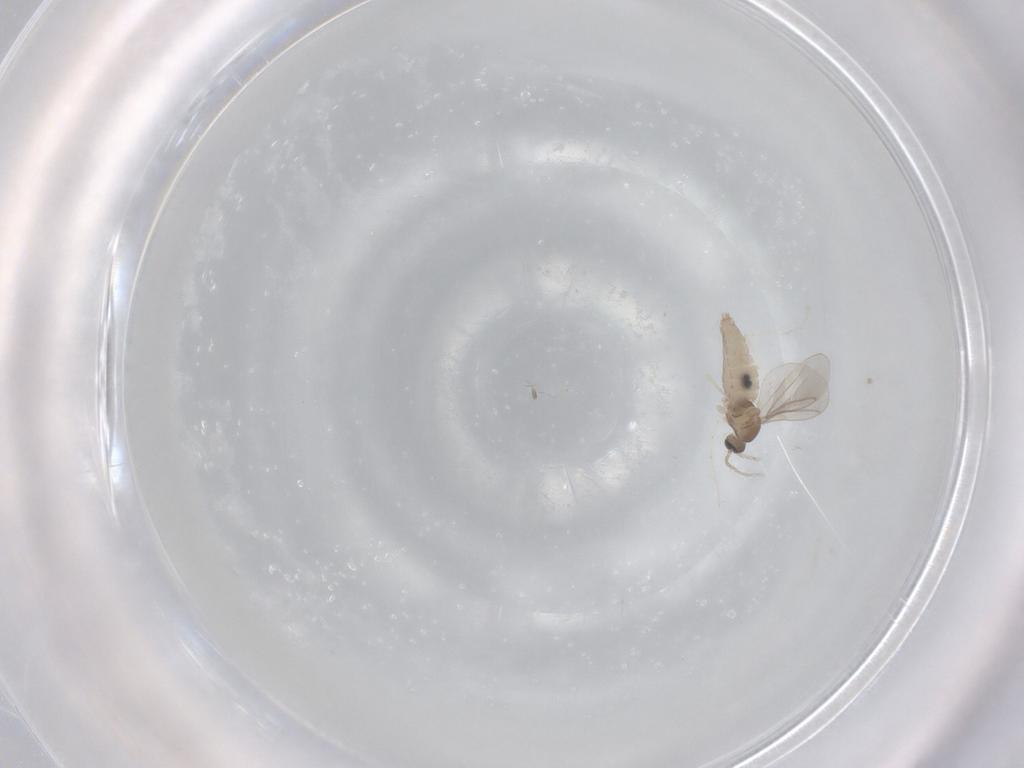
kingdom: Animalia
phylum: Arthropoda
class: Insecta
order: Diptera
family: Cecidomyiidae
